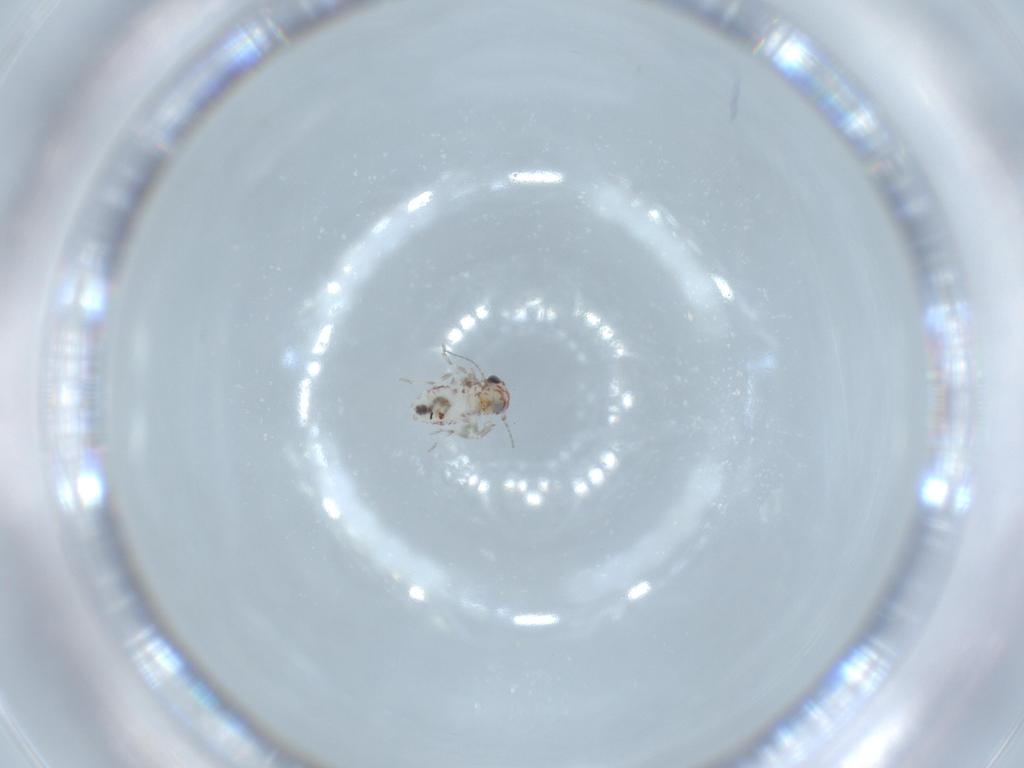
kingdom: Animalia
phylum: Arthropoda
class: Insecta
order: Psocodea
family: Amphientomidae
